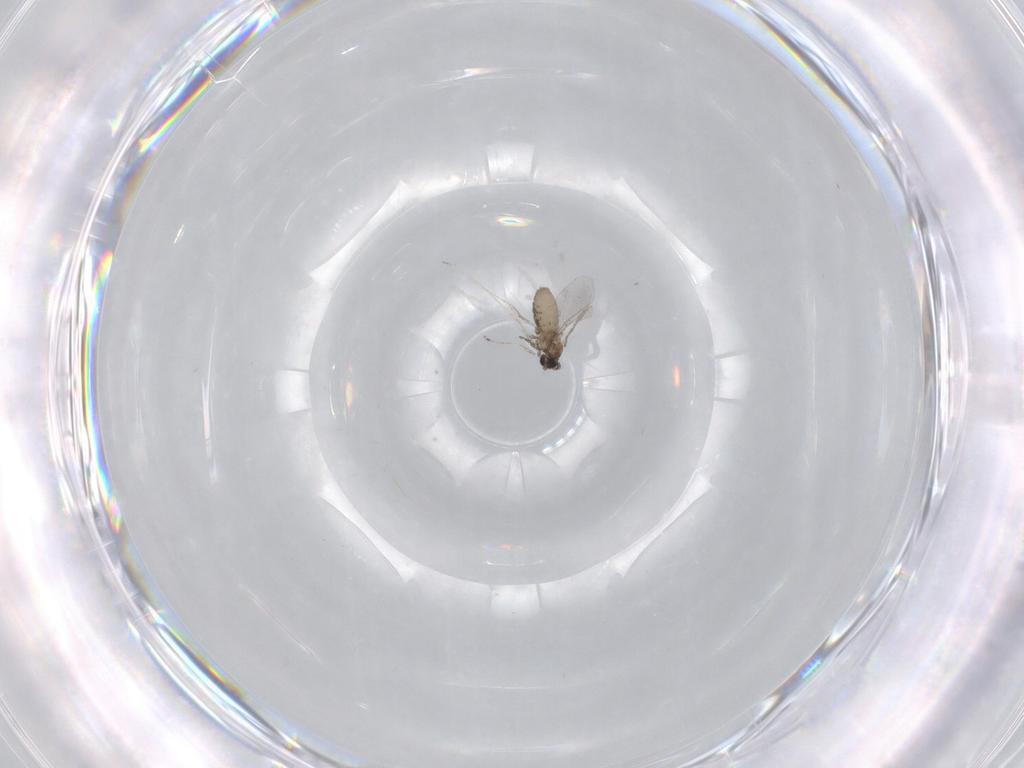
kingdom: Animalia
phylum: Arthropoda
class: Insecta
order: Diptera
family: Cecidomyiidae
